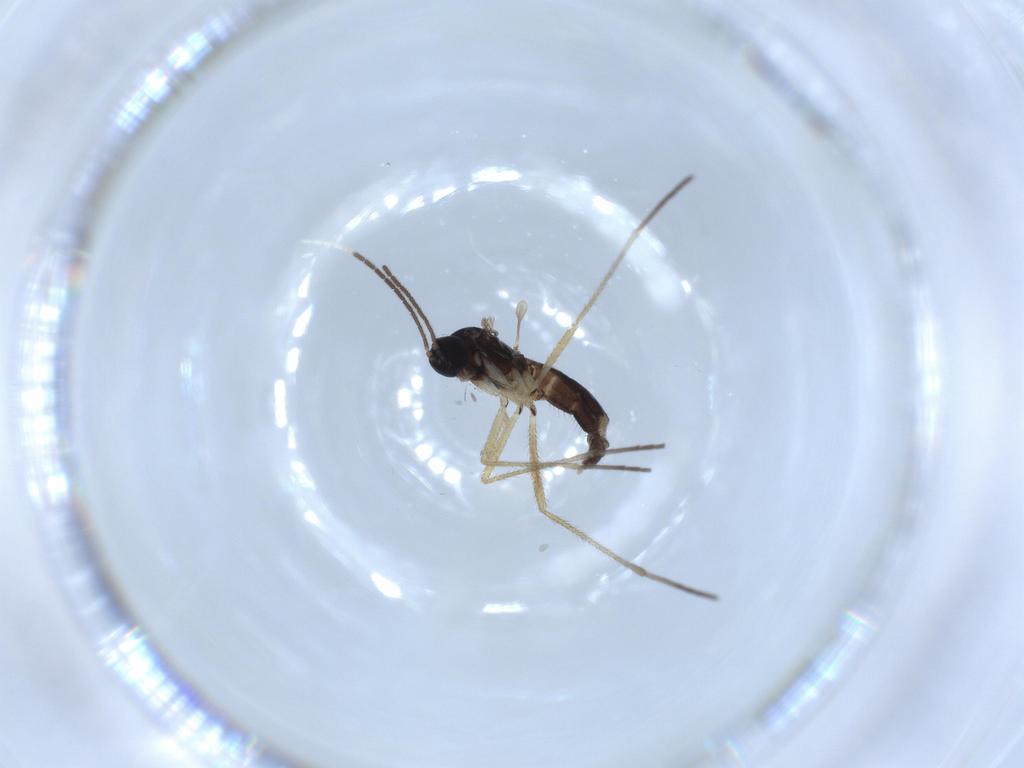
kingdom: Animalia
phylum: Arthropoda
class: Insecta
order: Diptera
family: Sciaridae
